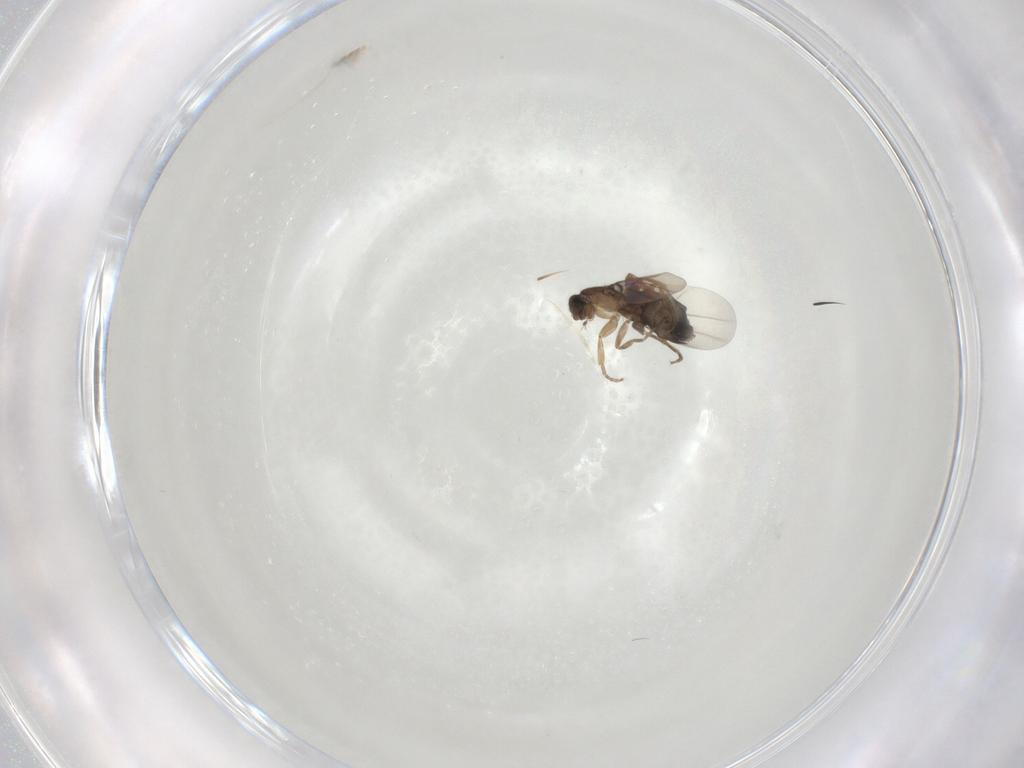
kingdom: Animalia
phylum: Arthropoda
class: Insecta
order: Diptera
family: Phoridae
